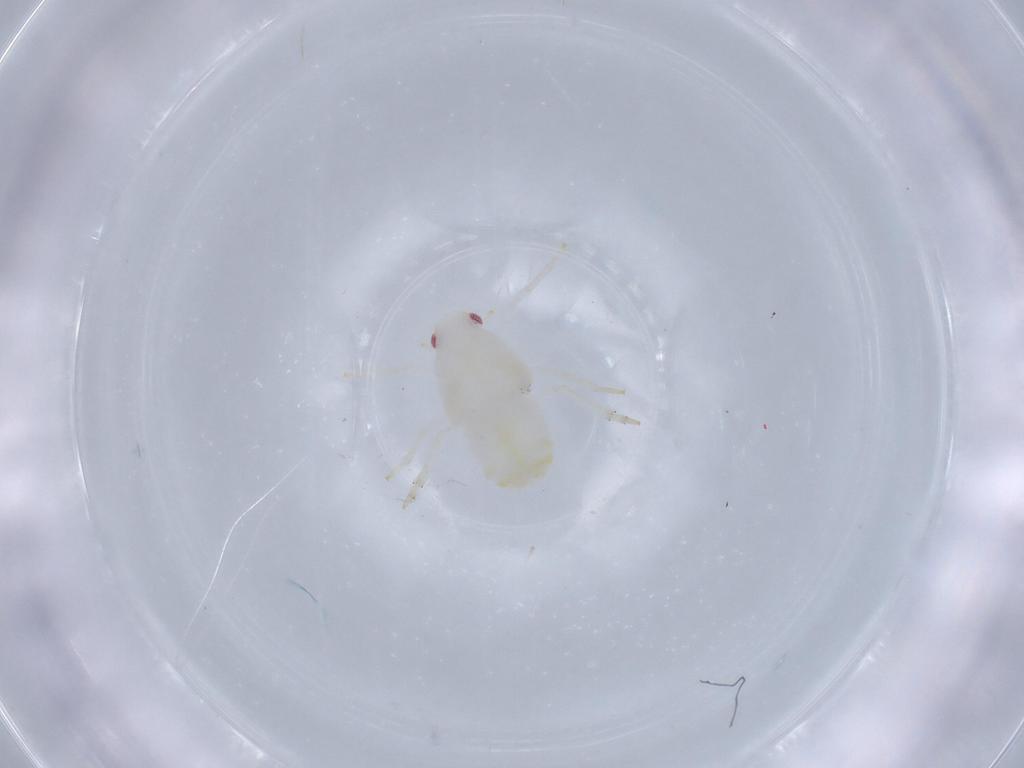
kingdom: Animalia
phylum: Arthropoda
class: Insecta
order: Hemiptera
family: Flatidae
